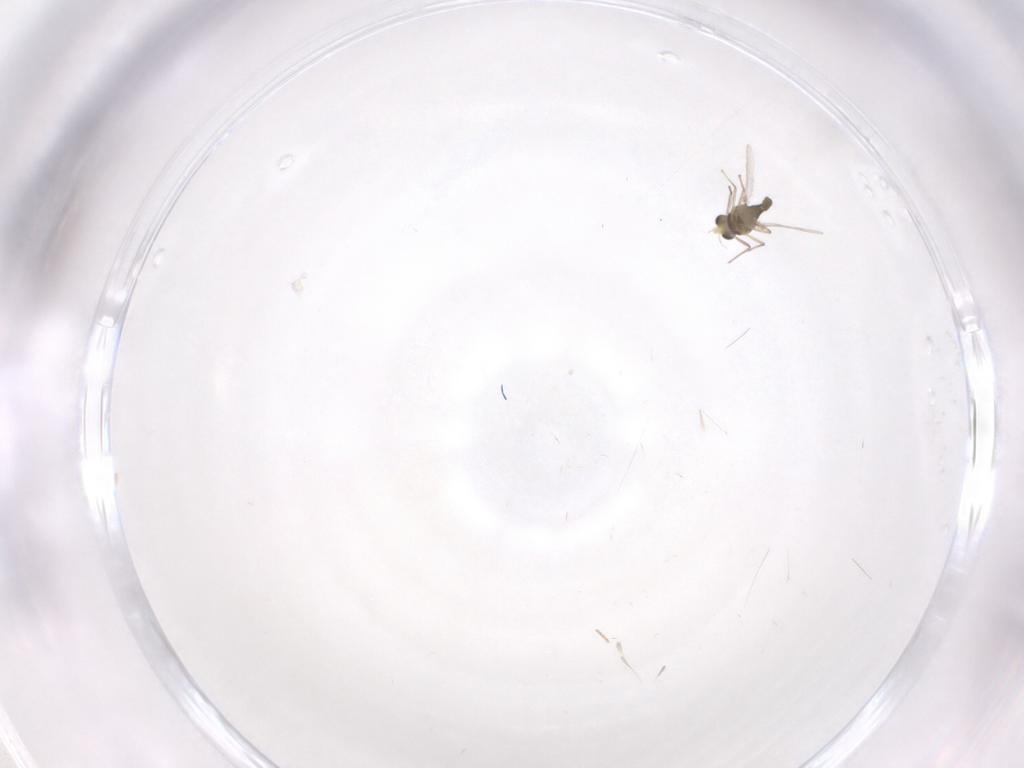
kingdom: Animalia
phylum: Arthropoda
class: Insecta
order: Diptera
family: Chironomidae
